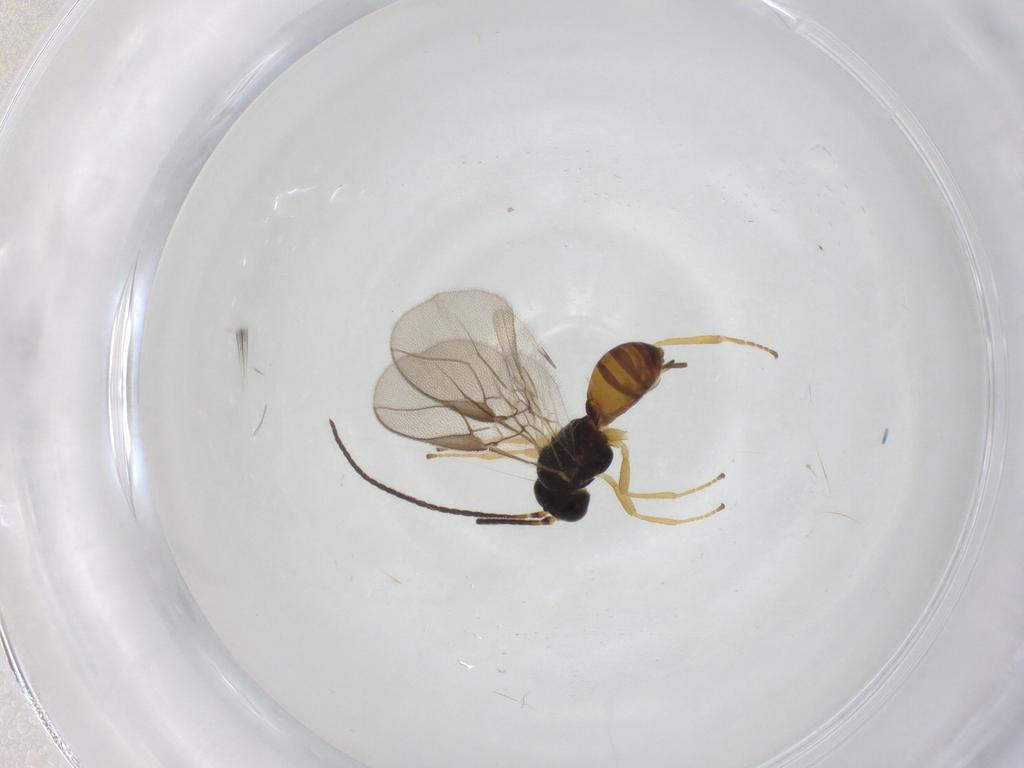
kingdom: Animalia
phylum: Arthropoda
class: Insecta
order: Hymenoptera
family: Braconidae
